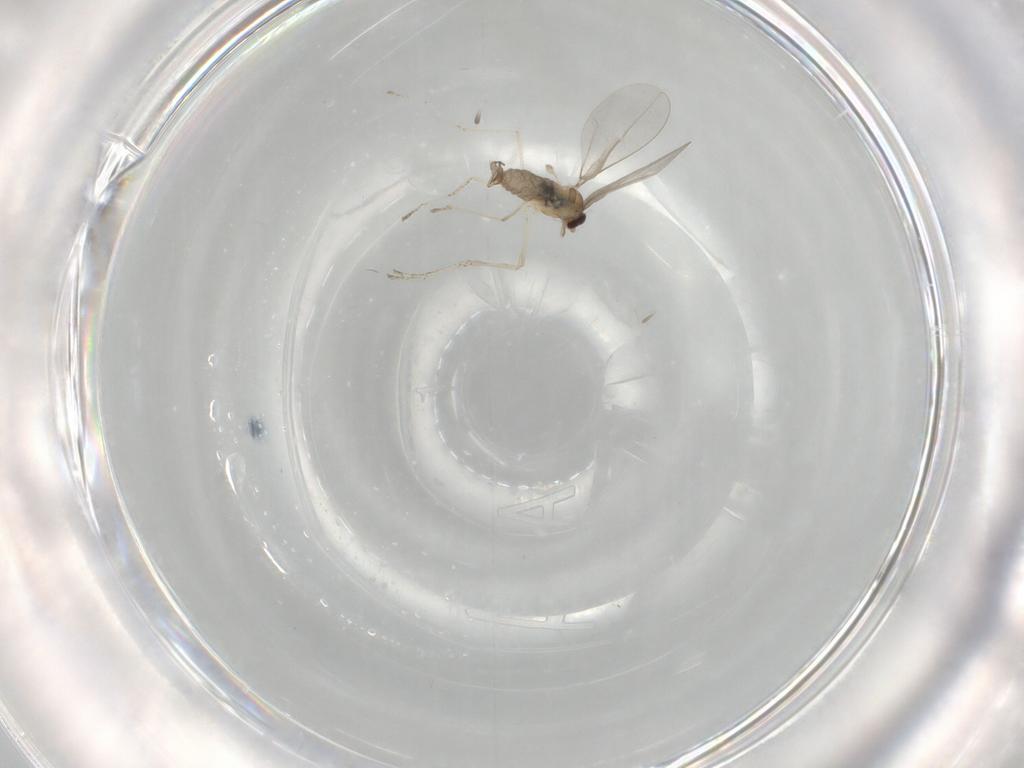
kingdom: Animalia
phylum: Arthropoda
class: Insecta
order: Diptera
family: Cecidomyiidae
